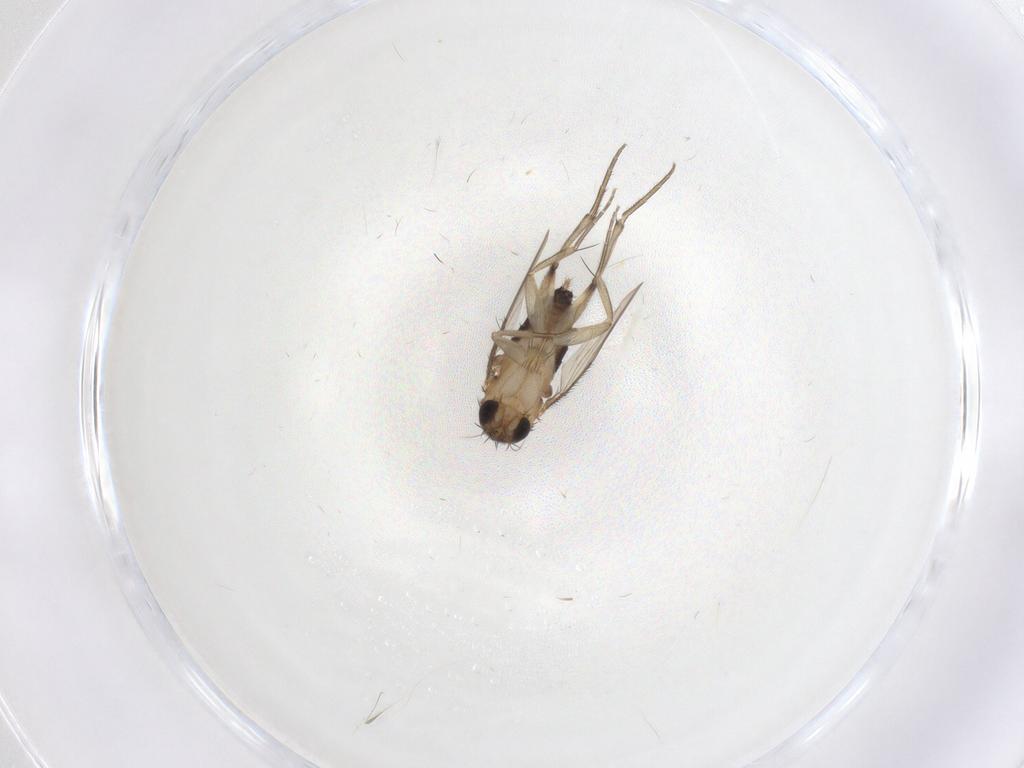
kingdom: Animalia
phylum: Arthropoda
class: Insecta
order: Diptera
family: Phoridae
